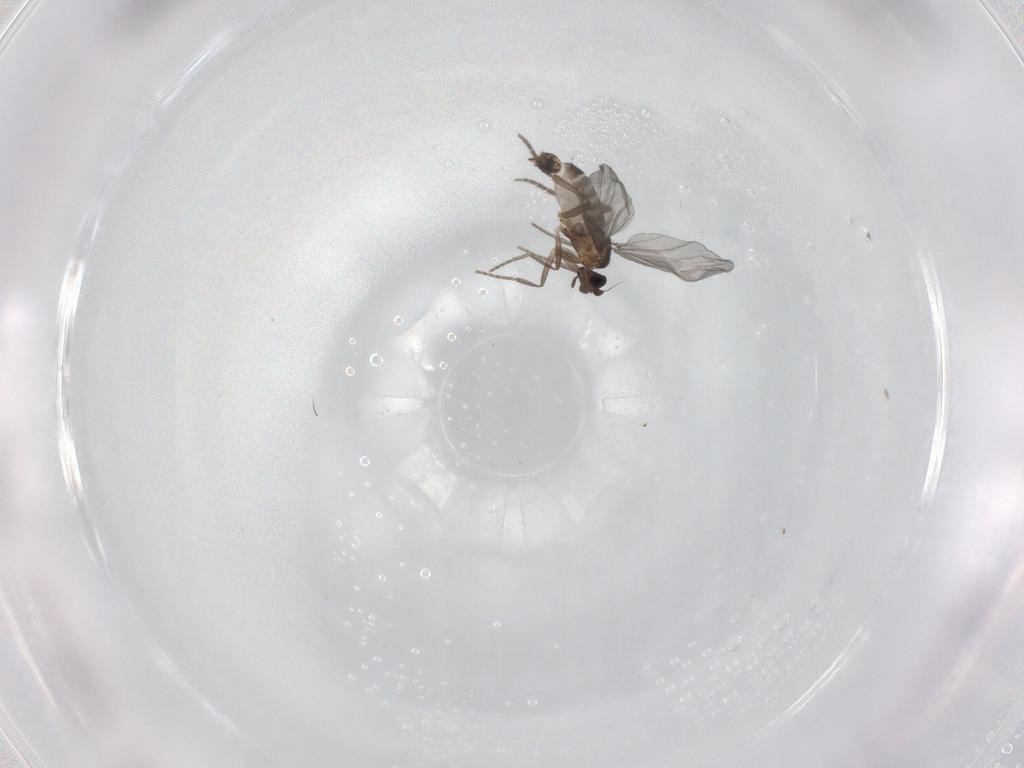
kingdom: Animalia
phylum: Arthropoda
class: Insecta
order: Diptera
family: Phoridae
